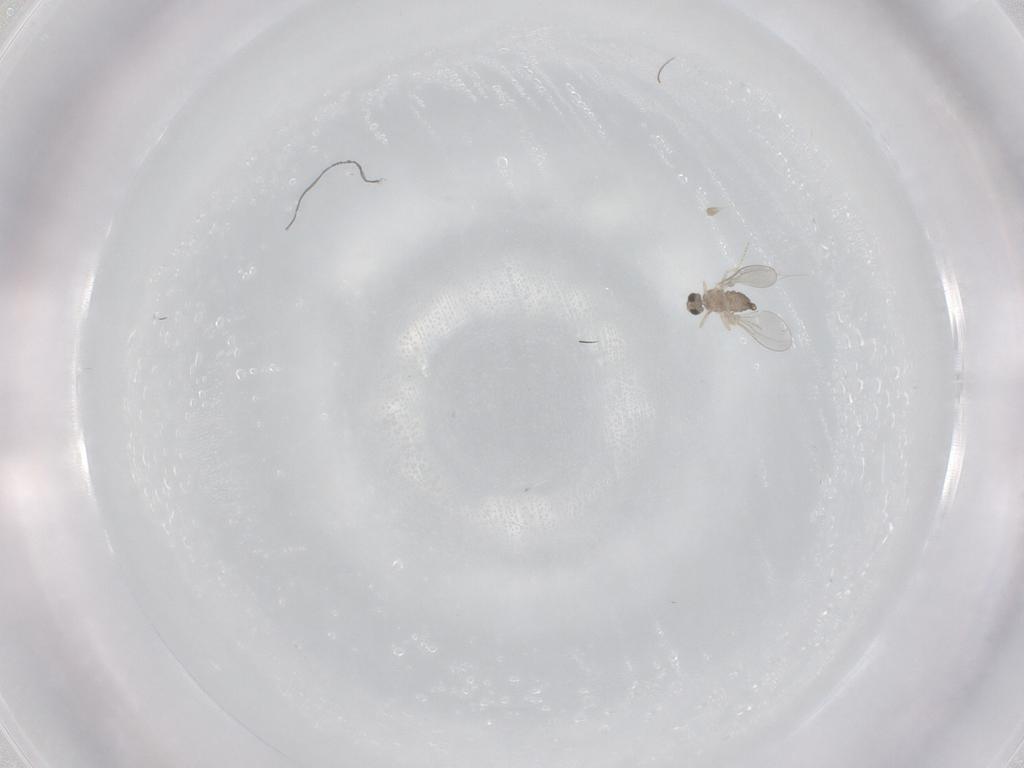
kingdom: Animalia
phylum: Arthropoda
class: Insecta
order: Diptera
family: Cecidomyiidae
